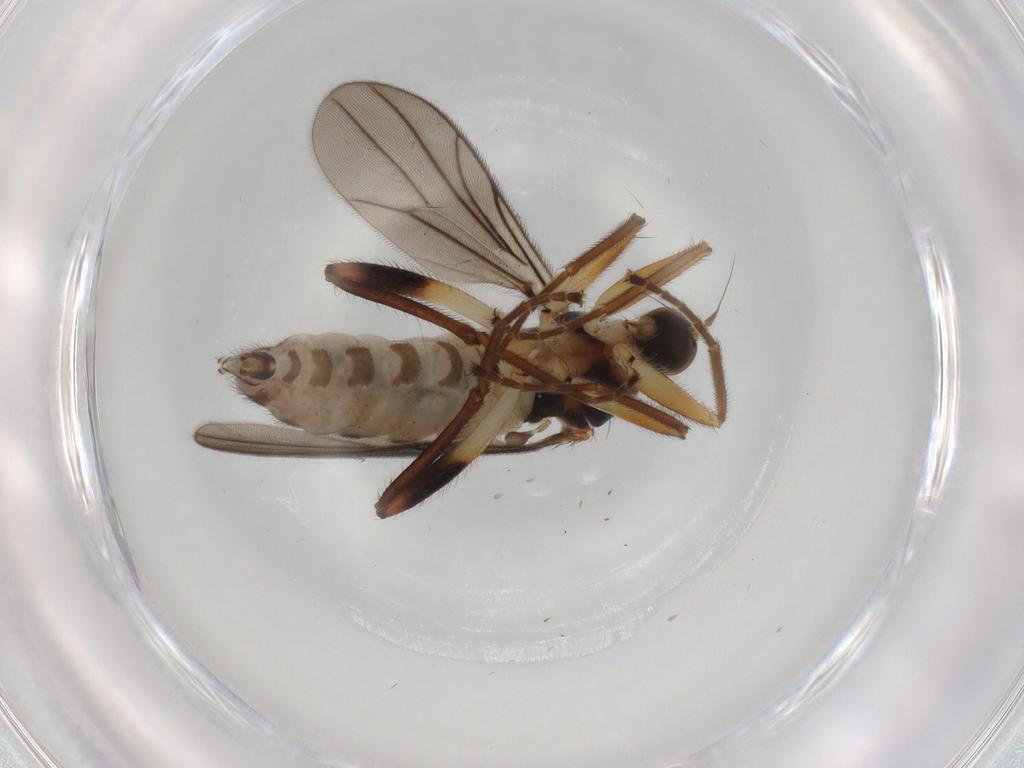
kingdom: Animalia
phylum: Arthropoda
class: Insecta
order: Diptera
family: Hybotidae
